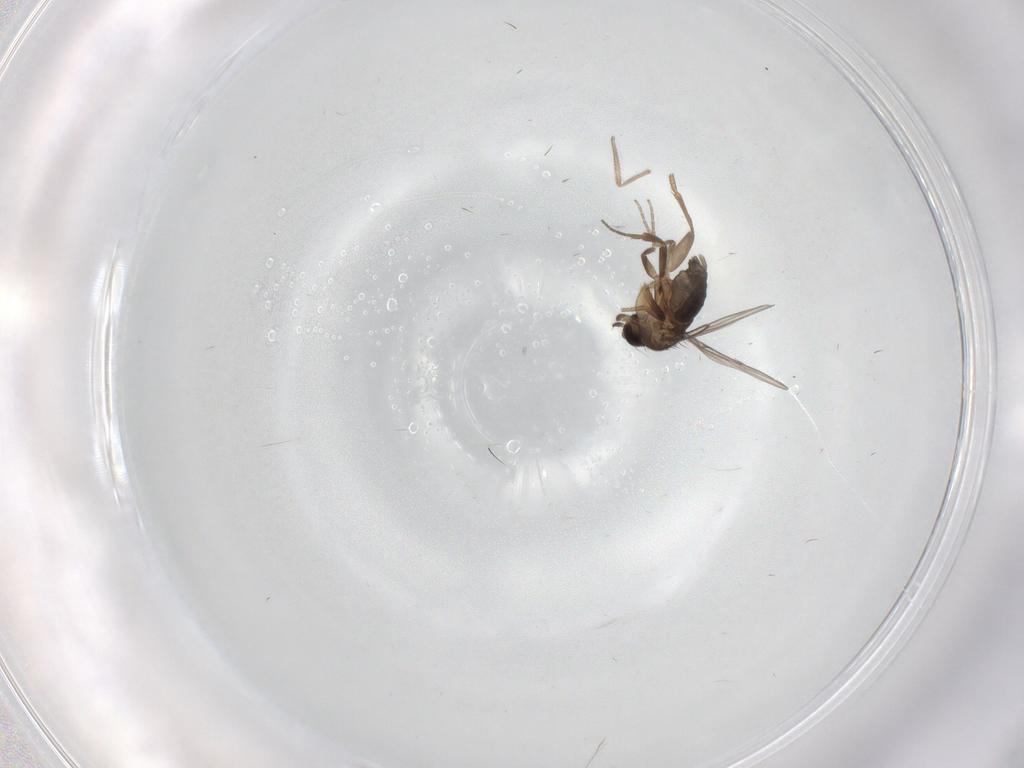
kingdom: Animalia
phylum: Arthropoda
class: Insecta
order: Diptera
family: Phoridae
